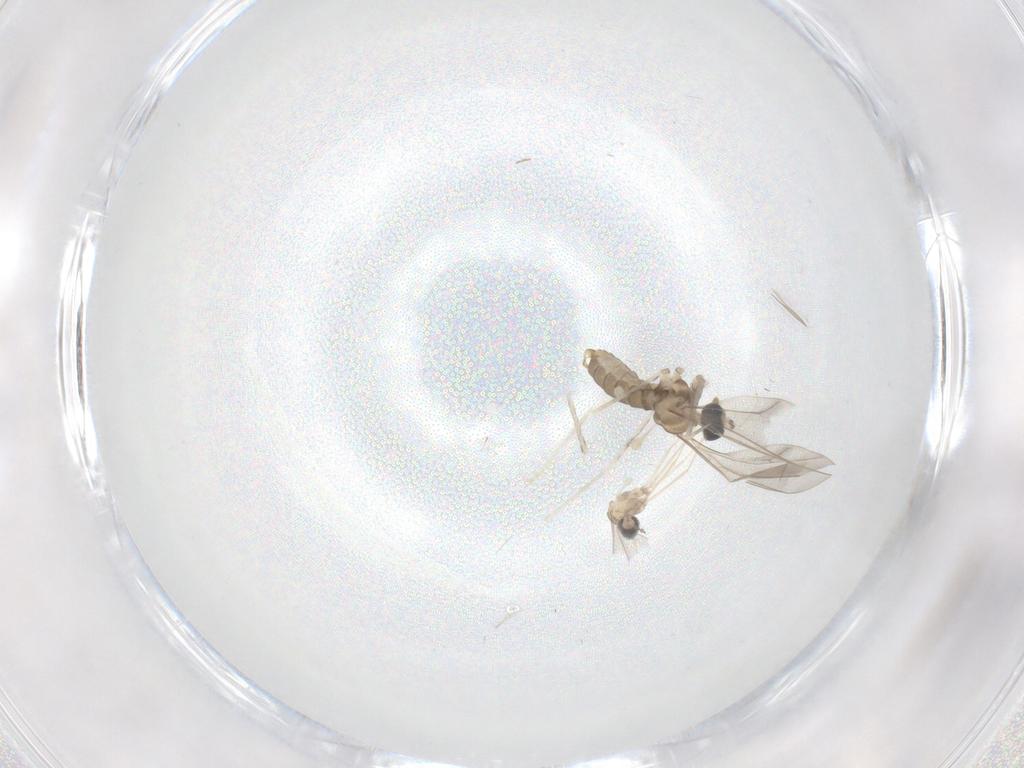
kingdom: Animalia
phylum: Arthropoda
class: Insecta
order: Diptera
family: Cecidomyiidae
